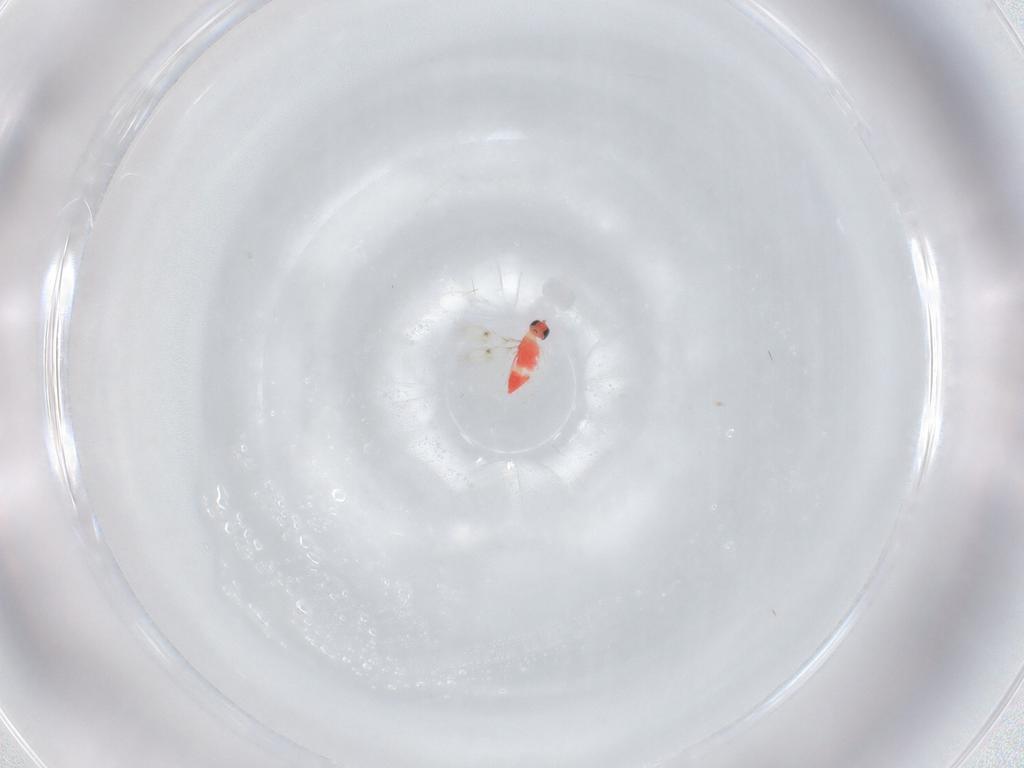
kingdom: Animalia
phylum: Arthropoda
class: Insecta
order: Hymenoptera
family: Trichogrammatidae
